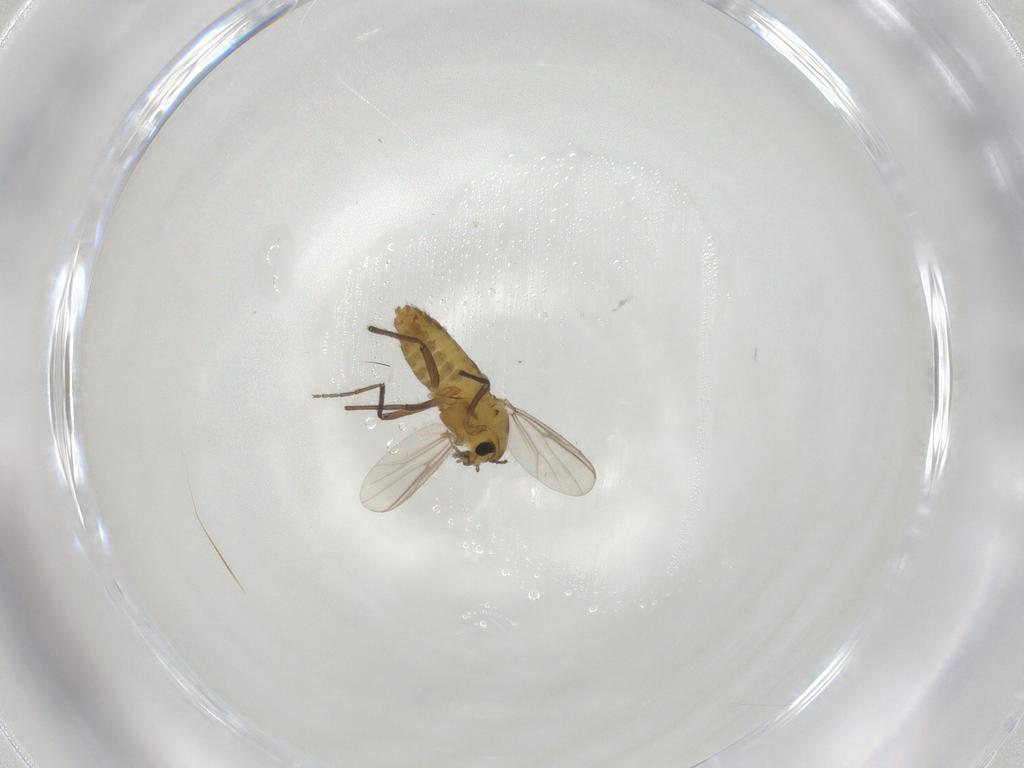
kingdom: Animalia
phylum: Arthropoda
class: Insecta
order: Diptera
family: Chironomidae
